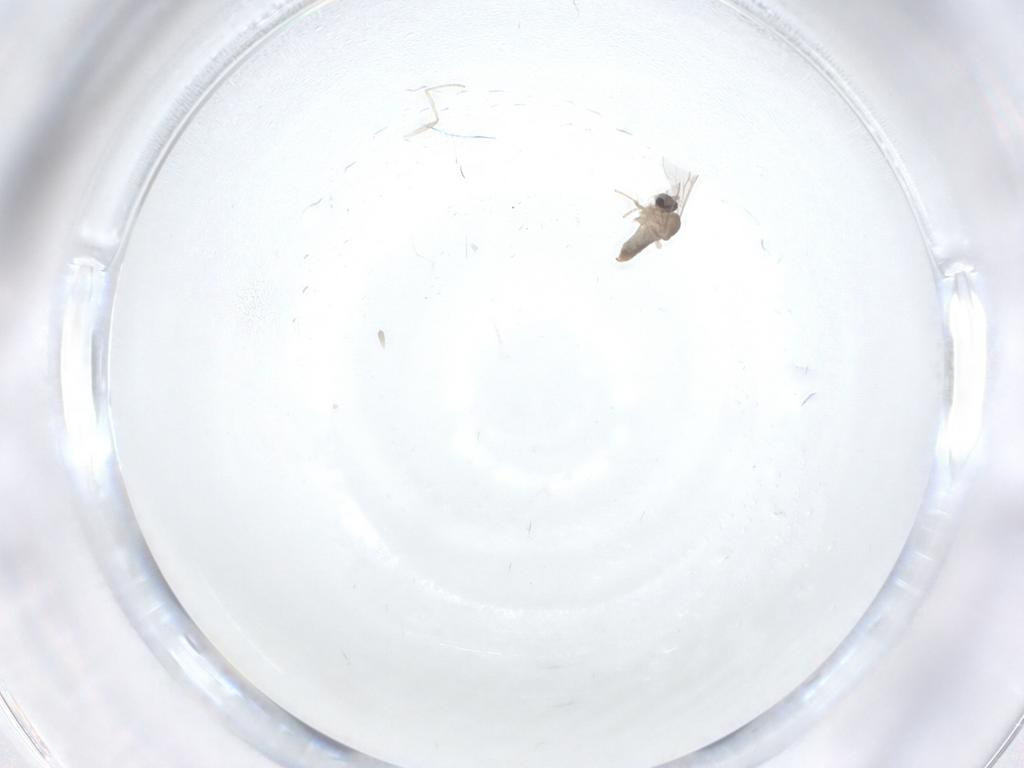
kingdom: Animalia
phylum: Arthropoda
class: Insecta
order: Diptera
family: Cecidomyiidae
